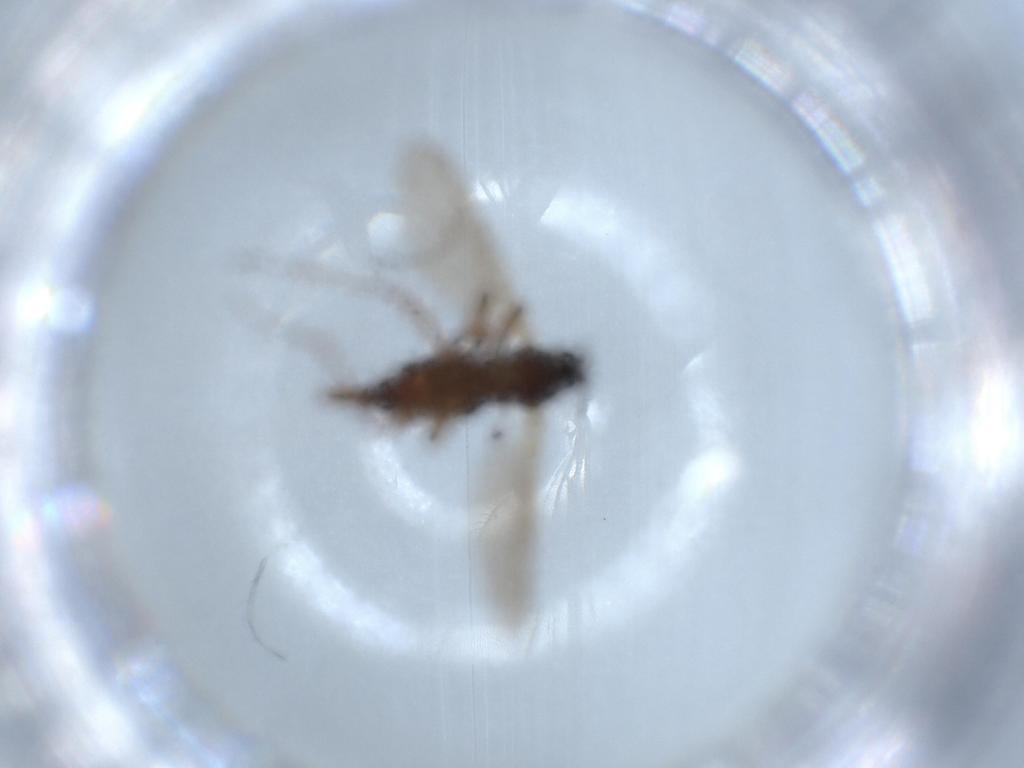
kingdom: Animalia
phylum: Arthropoda
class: Insecta
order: Diptera
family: Sciaridae
